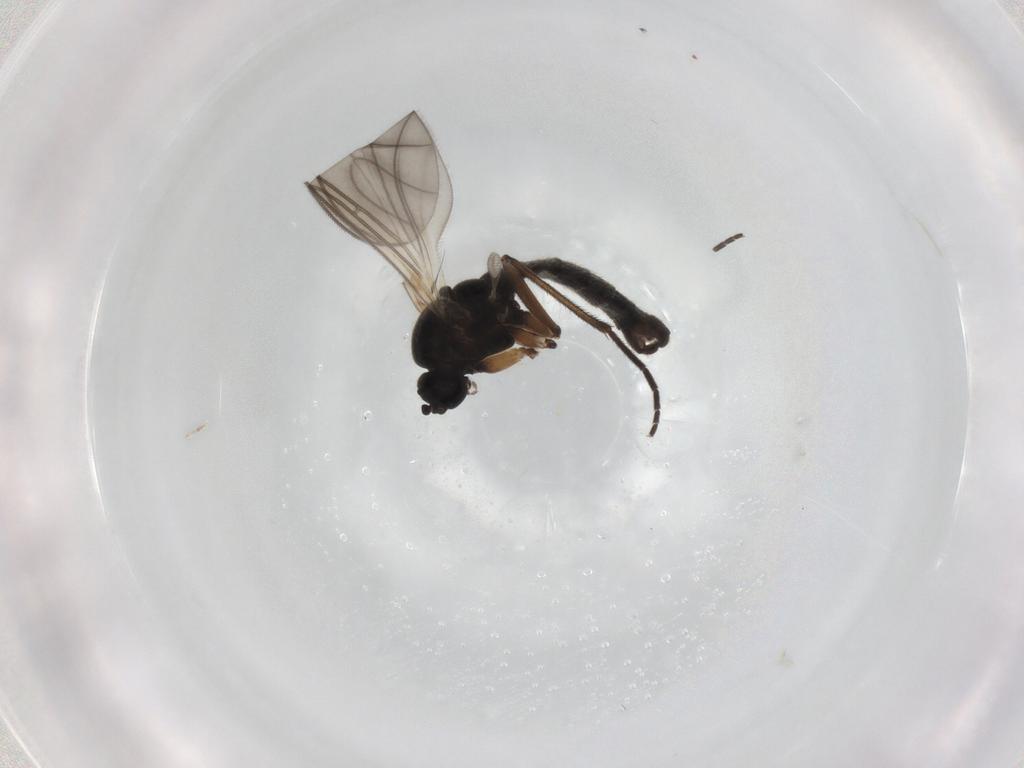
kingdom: Animalia
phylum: Arthropoda
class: Insecta
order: Diptera
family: Sciaridae
